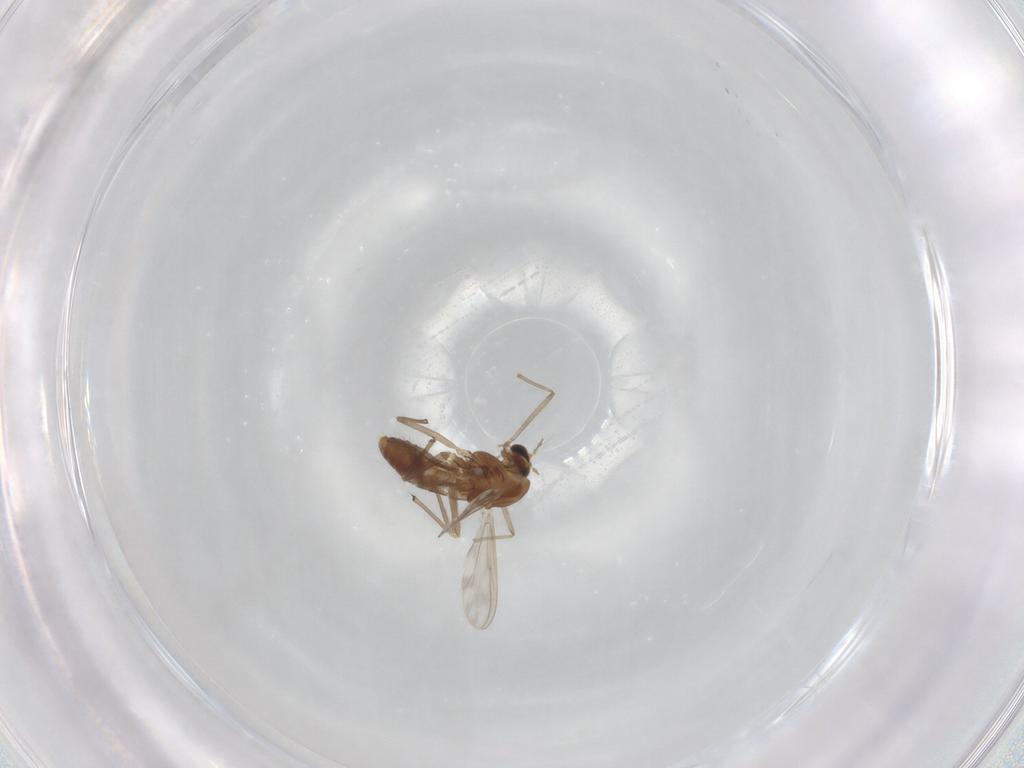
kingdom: Animalia
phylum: Arthropoda
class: Insecta
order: Diptera
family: Chironomidae
